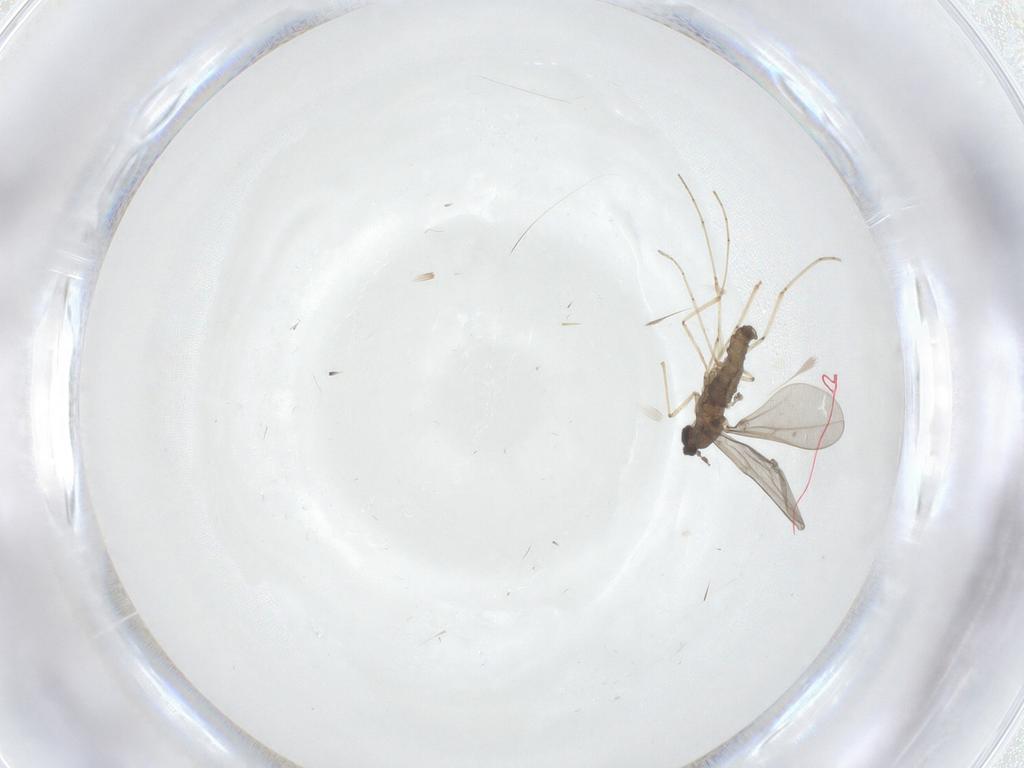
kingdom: Animalia
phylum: Arthropoda
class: Insecta
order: Diptera
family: Cecidomyiidae
